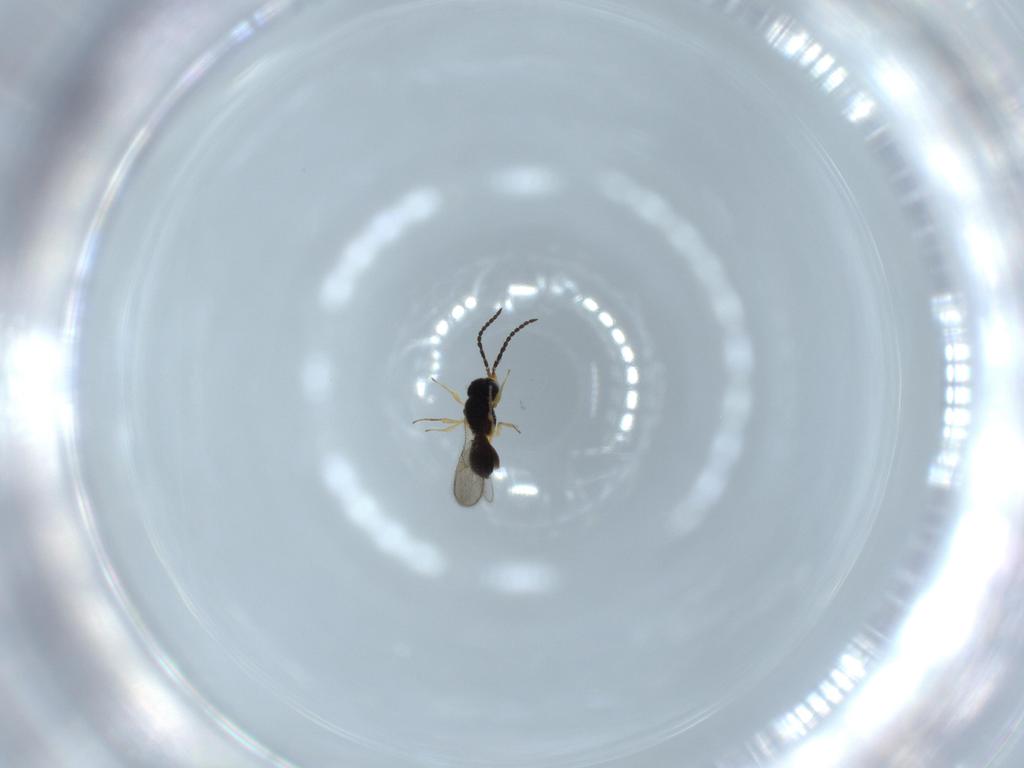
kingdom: Animalia
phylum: Arthropoda
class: Insecta
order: Hymenoptera
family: Scelionidae
